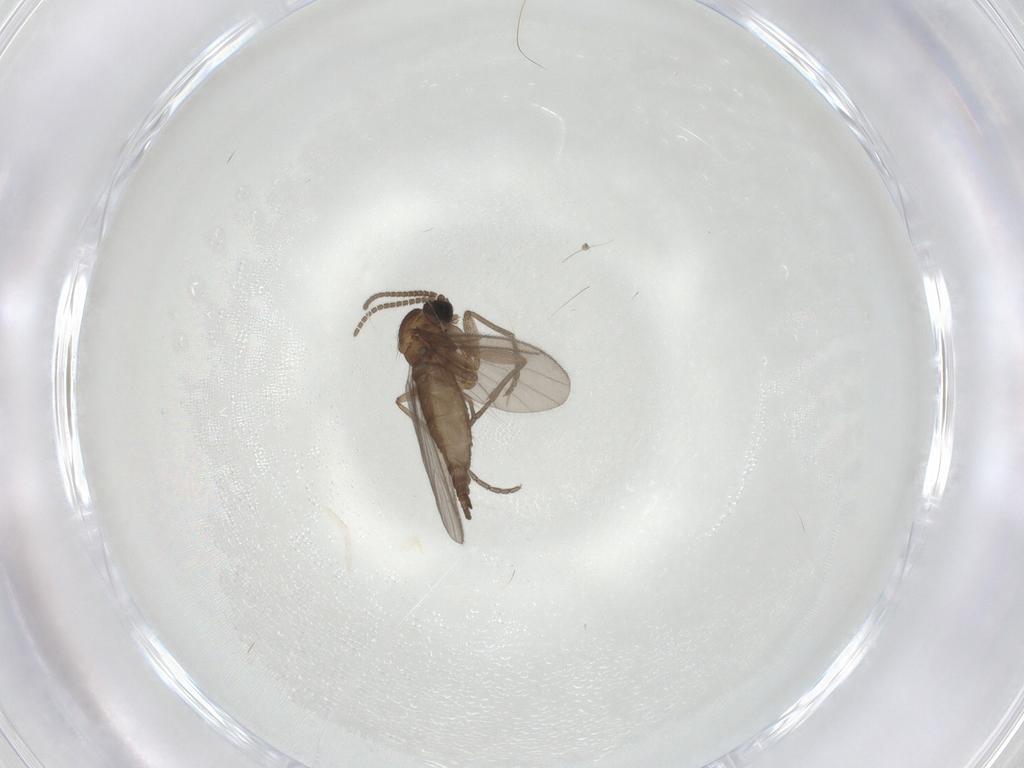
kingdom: Animalia
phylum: Arthropoda
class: Insecta
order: Diptera
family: Sciaridae
